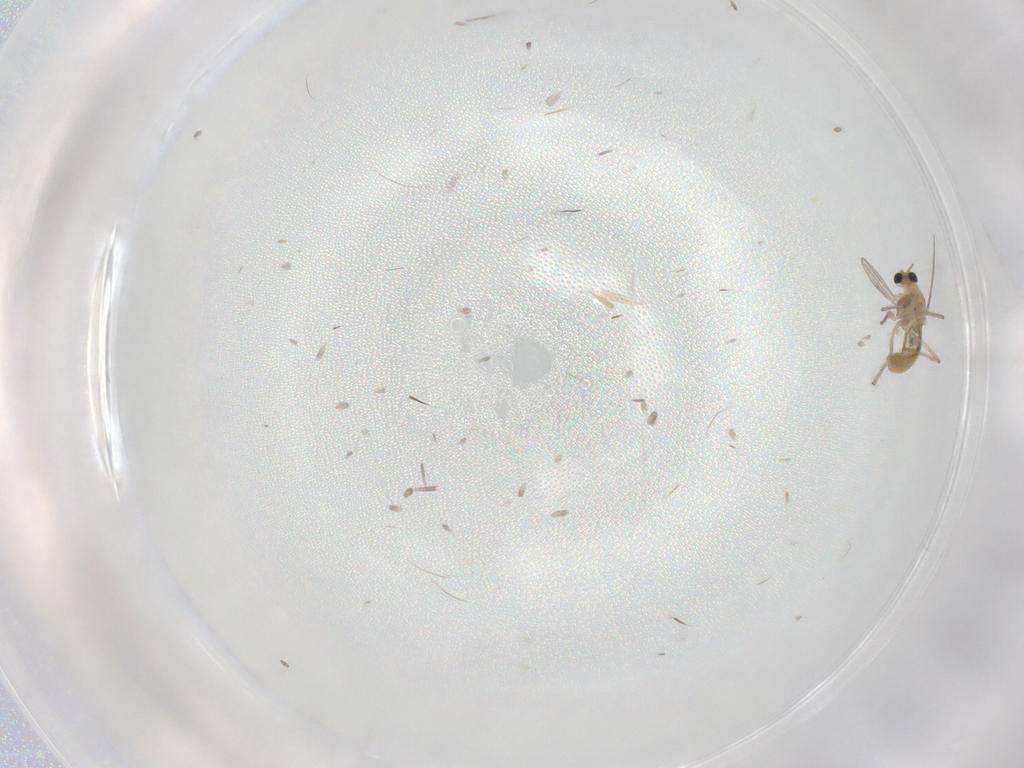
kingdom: Animalia
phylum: Arthropoda
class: Insecta
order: Diptera
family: Chironomidae
